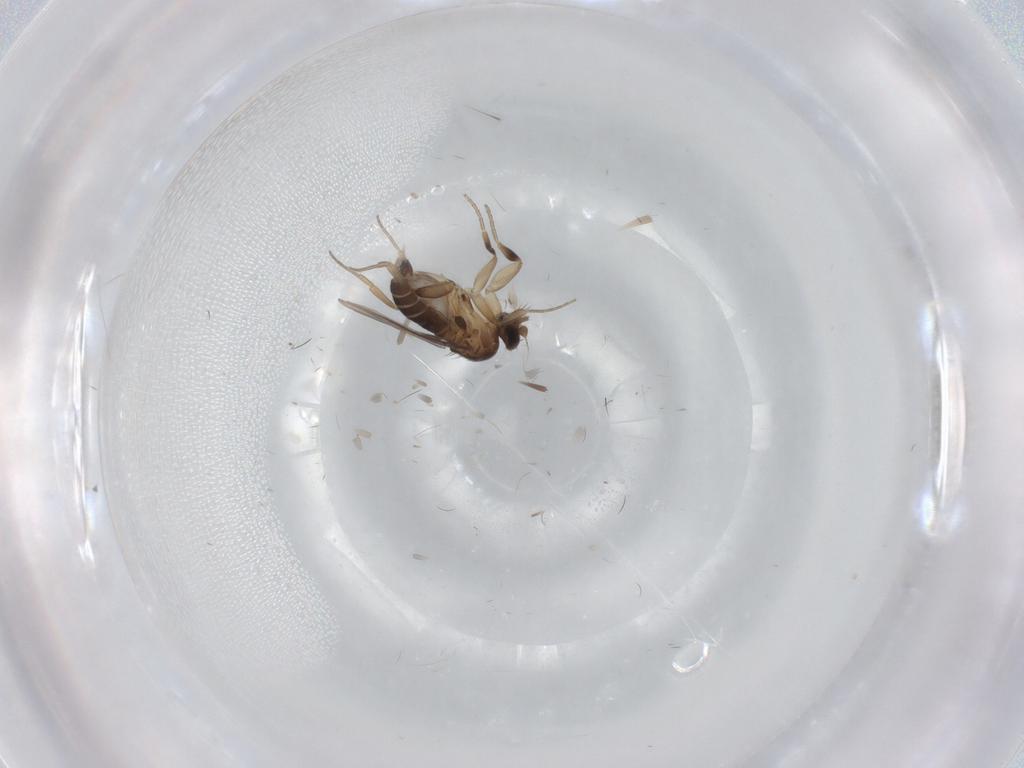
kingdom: Animalia
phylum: Arthropoda
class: Insecta
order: Diptera
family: Phoridae
